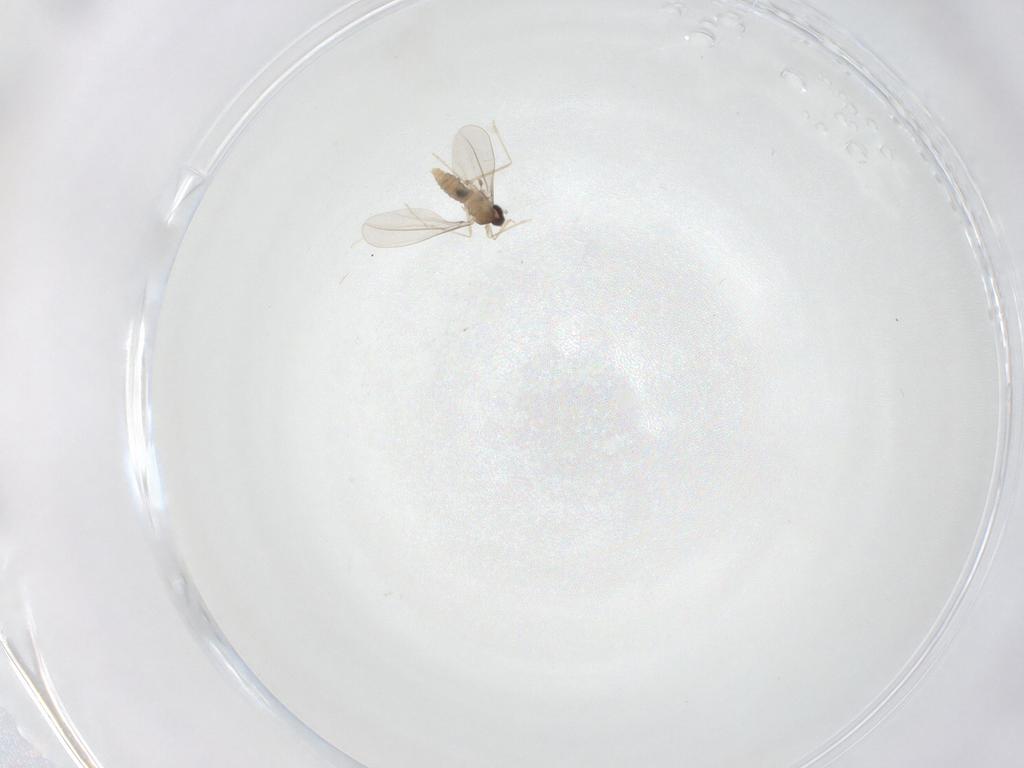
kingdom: Animalia
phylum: Arthropoda
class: Insecta
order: Diptera
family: Cecidomyiidae
